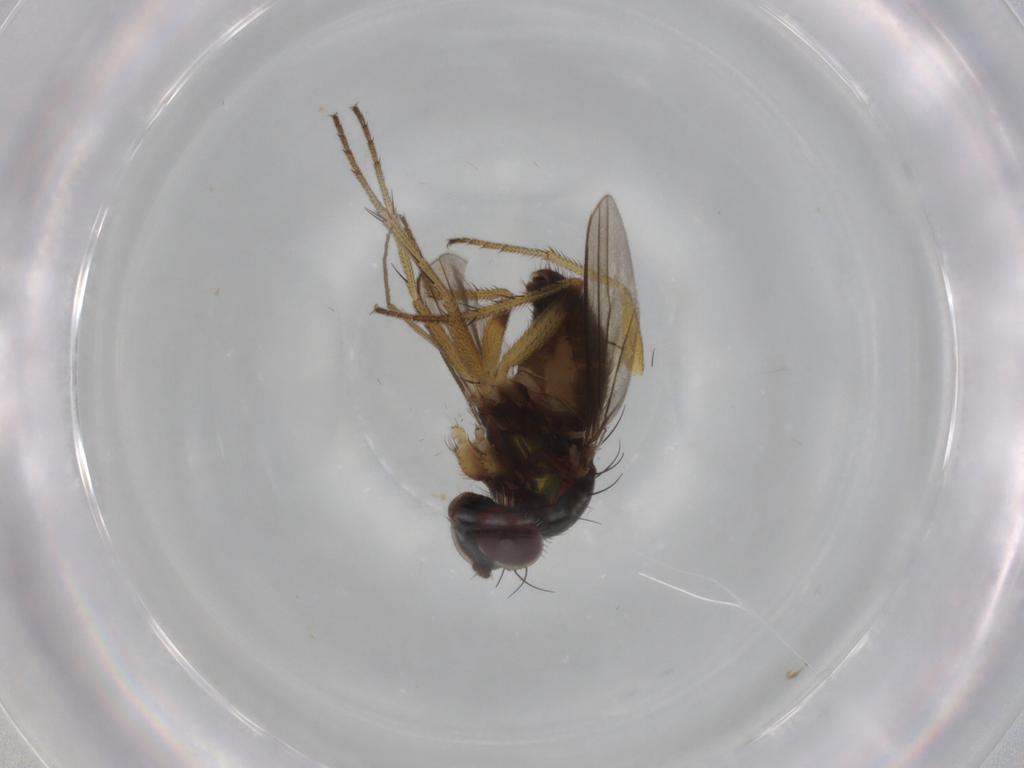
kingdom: Animalia
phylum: Arthropoda
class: Insecta
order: Diptera
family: Dolichopodidae
